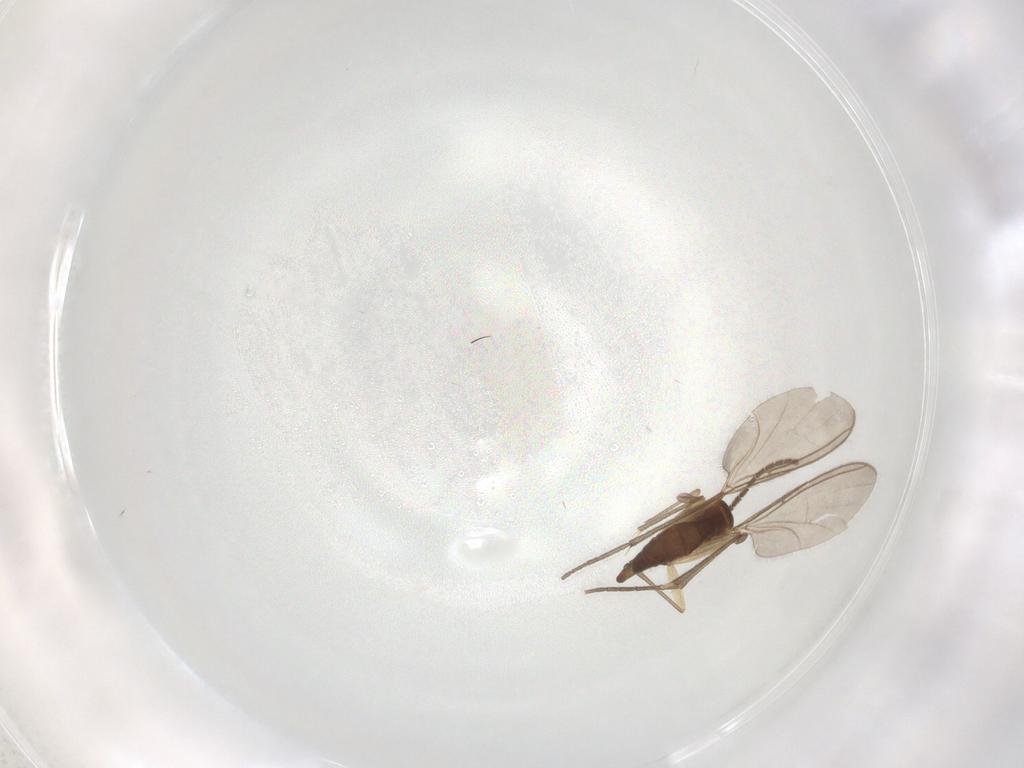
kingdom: Animalia
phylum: Arthropoda
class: Insecta
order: Diptera
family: Sciaridae
